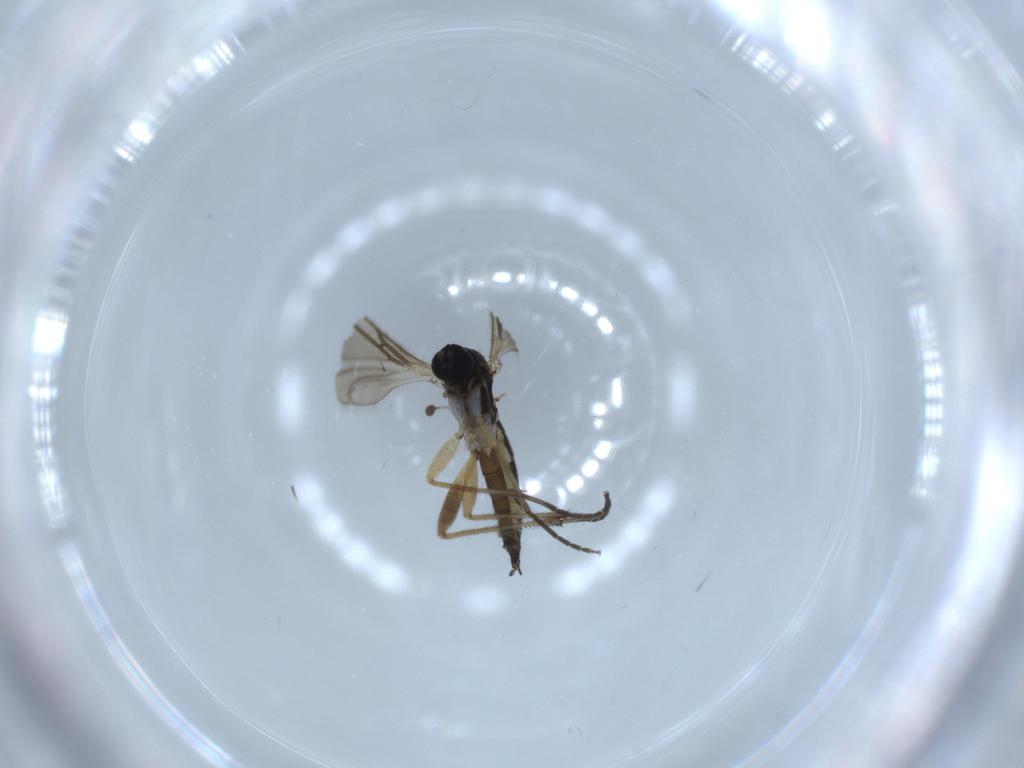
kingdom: Animalia
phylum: Arthropoda
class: Insecta
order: Diptera
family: Sciaridae
